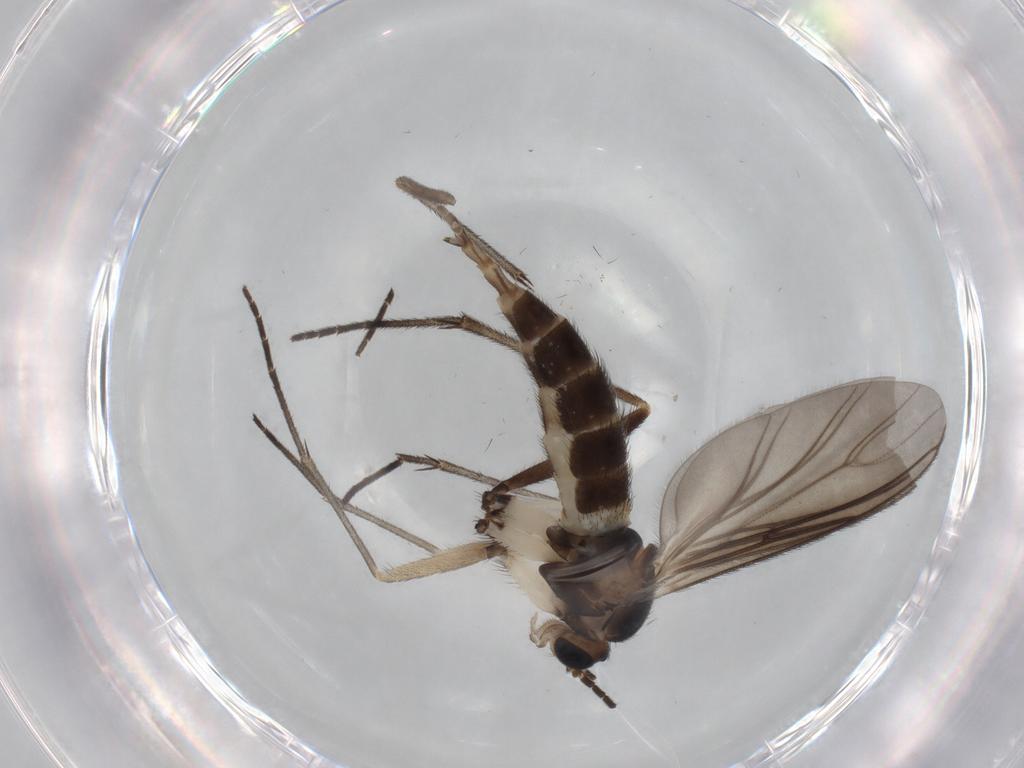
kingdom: Animalia
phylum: Arthropoda
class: Insecta
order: Diptera
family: Sciaridae
